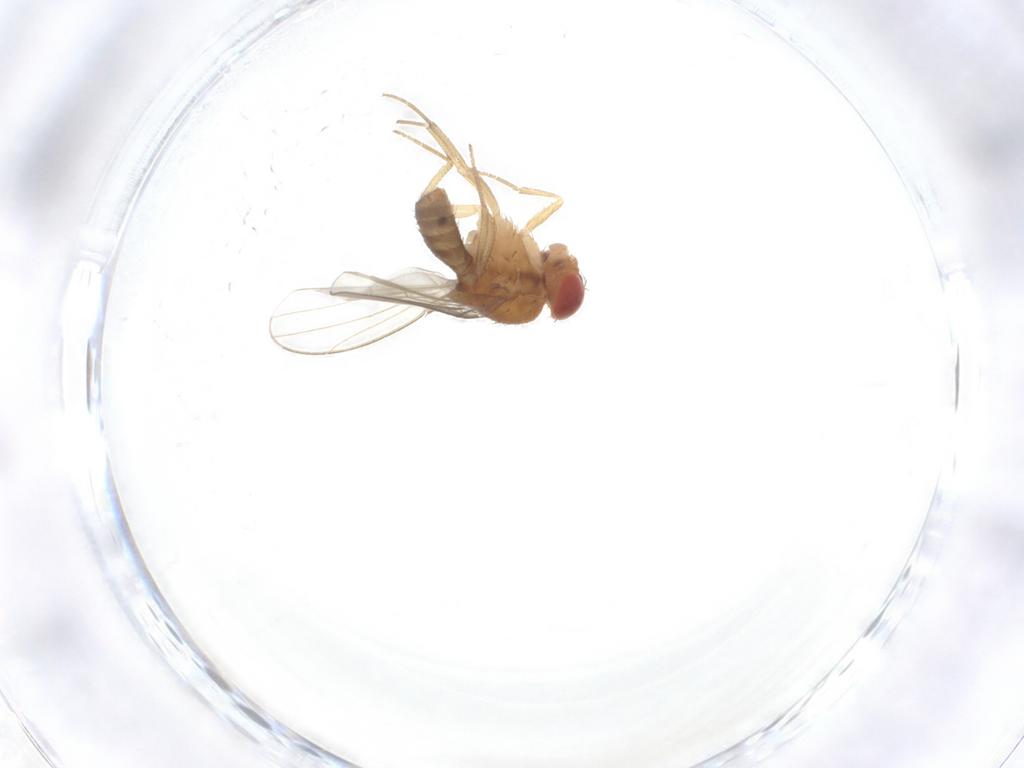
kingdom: Animalia
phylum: Arthropoda
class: Insecta
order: Diptera
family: Drosophilidae
